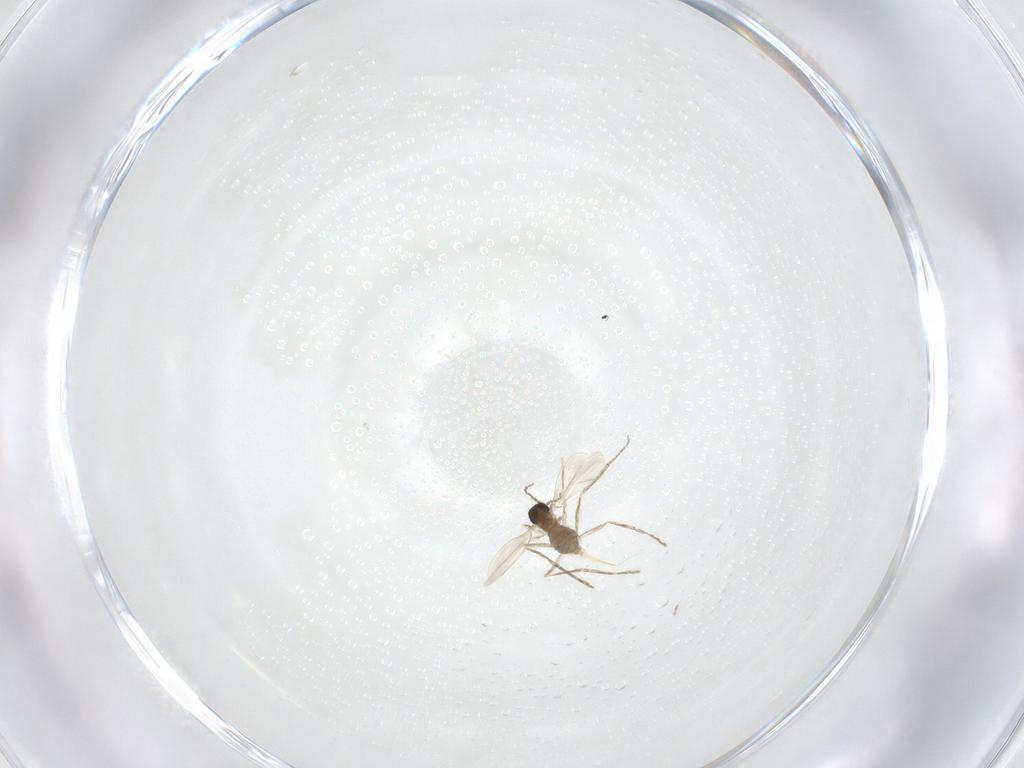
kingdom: Animalia
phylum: Arthropoda
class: Insecta
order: Diptera
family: Cecidomyiidae
